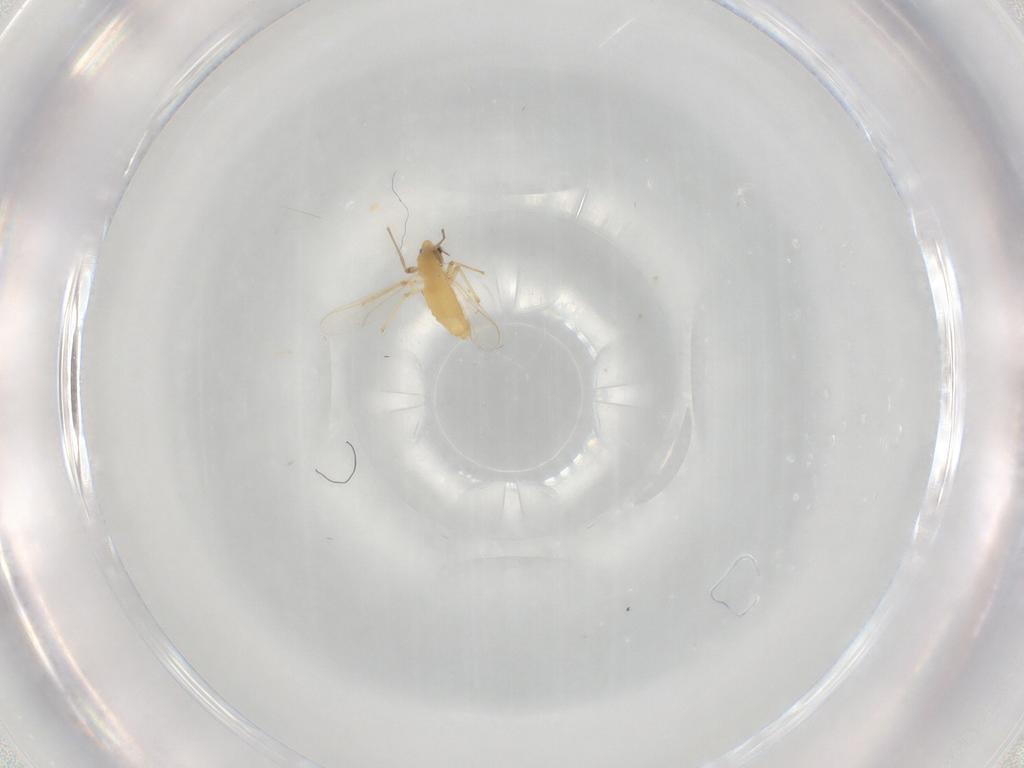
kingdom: Animalia
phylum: Arthropoda
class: Insecta
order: Diptera
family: Chironomidae
